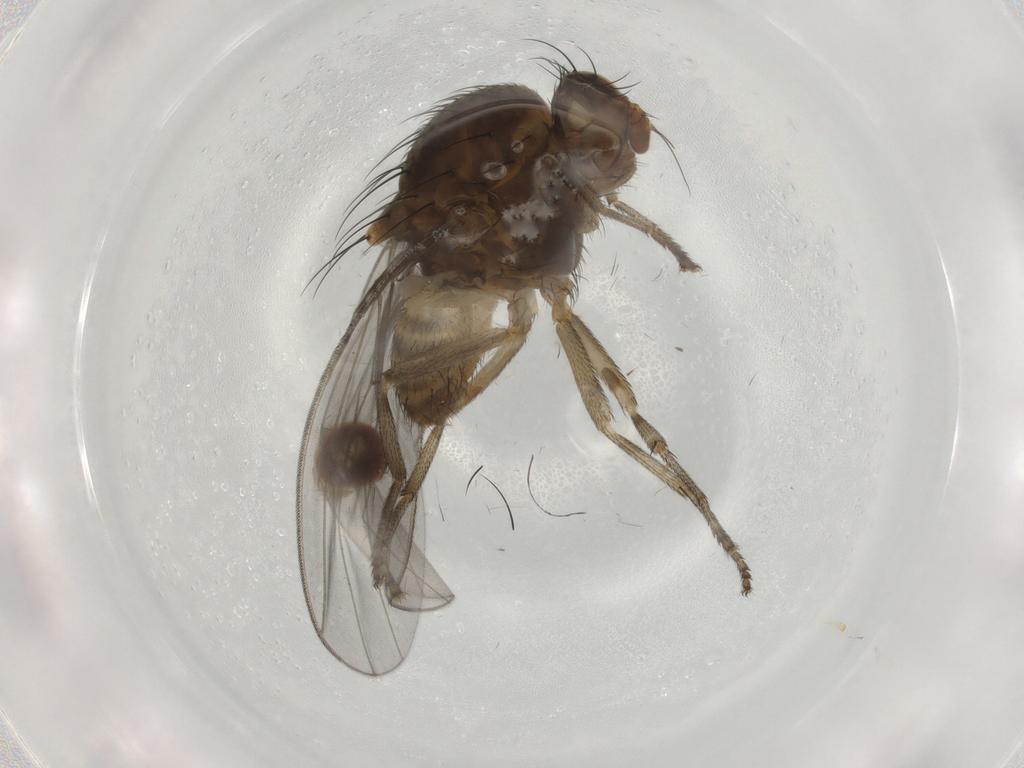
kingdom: Animalia
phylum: Arthropoda
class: Insecta
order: Diptera
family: Lauxaniidae
